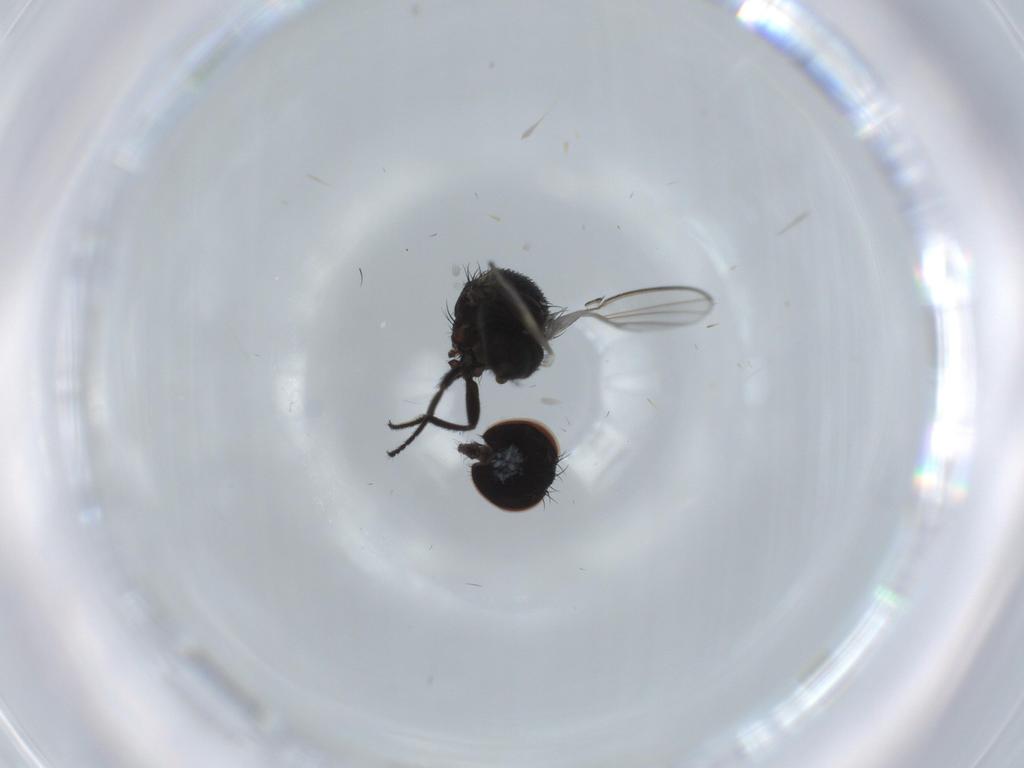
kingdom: Animalia
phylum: Arthropoda
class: Insecta
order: Diptera
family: Milichiidae
